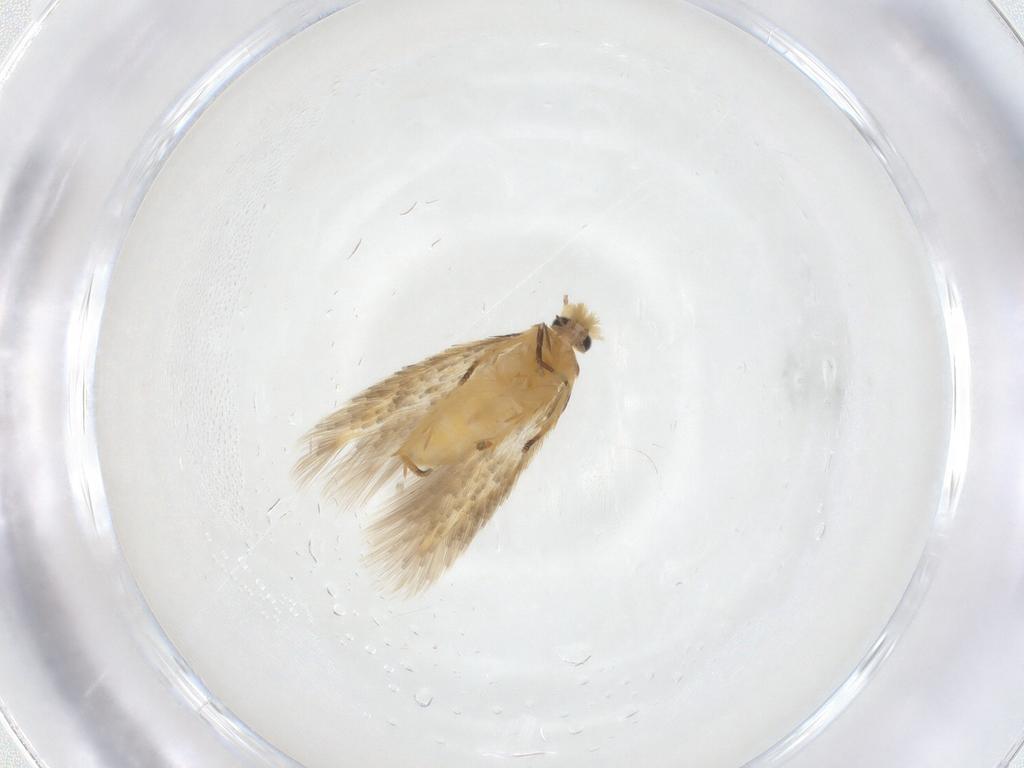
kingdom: Animalia
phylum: Arthropoda
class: Insecta
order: Lepidoptera
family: Nepticulidae
